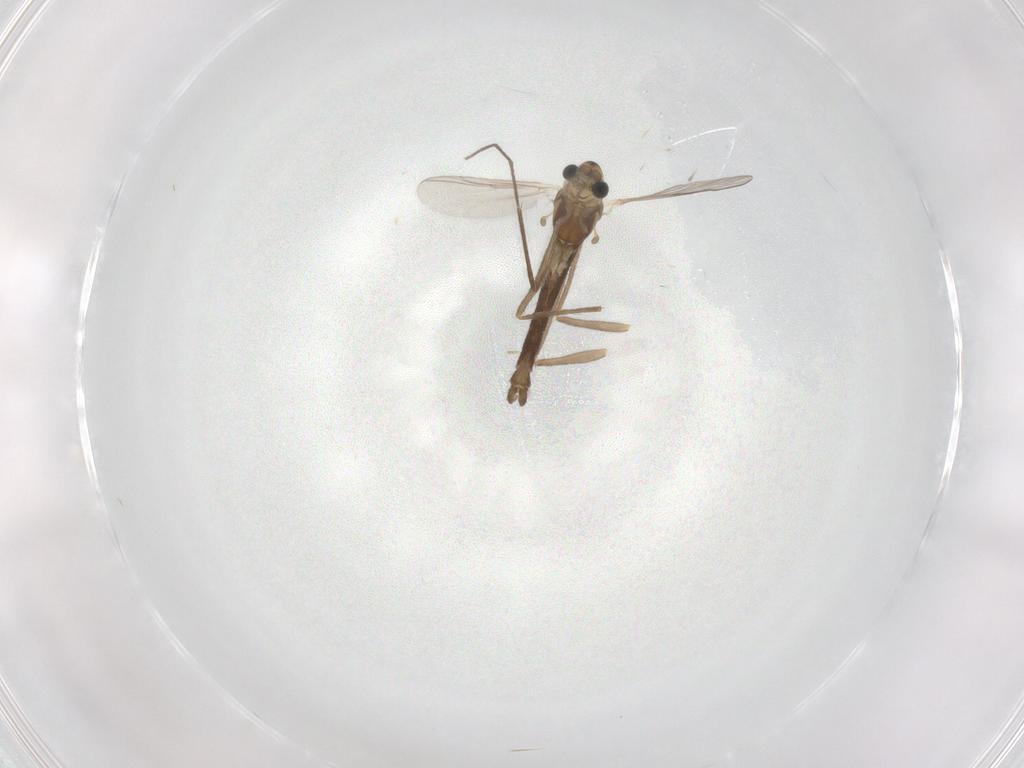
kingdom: Animalia
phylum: Arthropoda
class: Insecta
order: Diptera
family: Chironomidae
